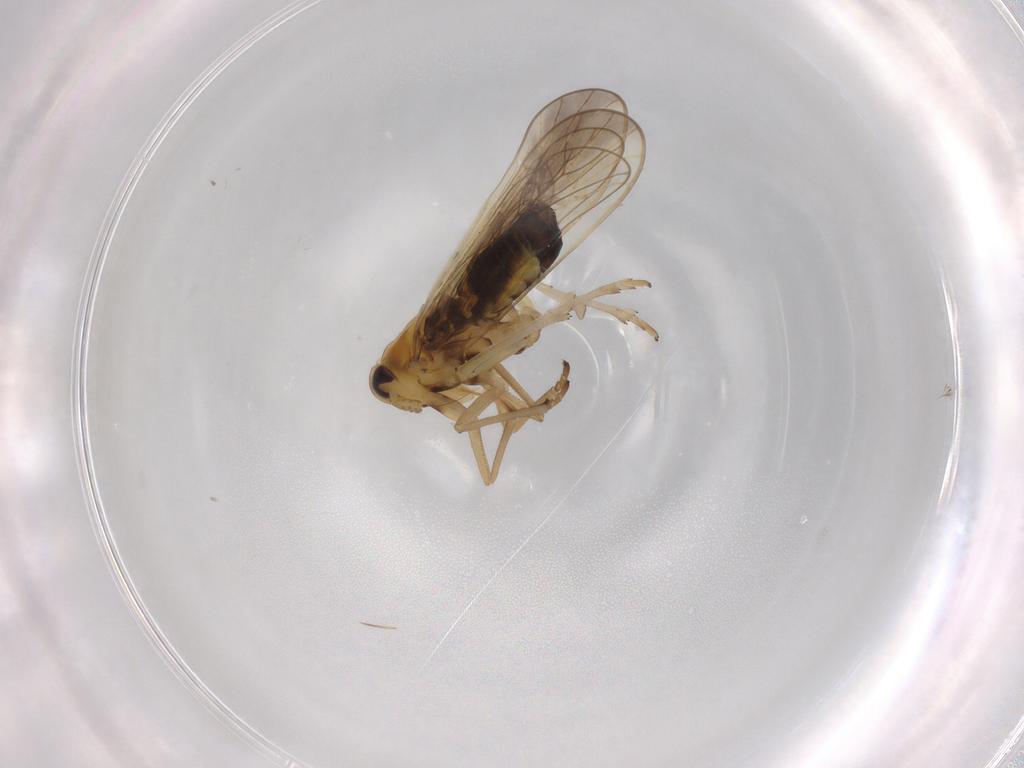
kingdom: Animalia
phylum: Arthropoda
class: Insecta
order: Hemiptera
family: Delphacidae
